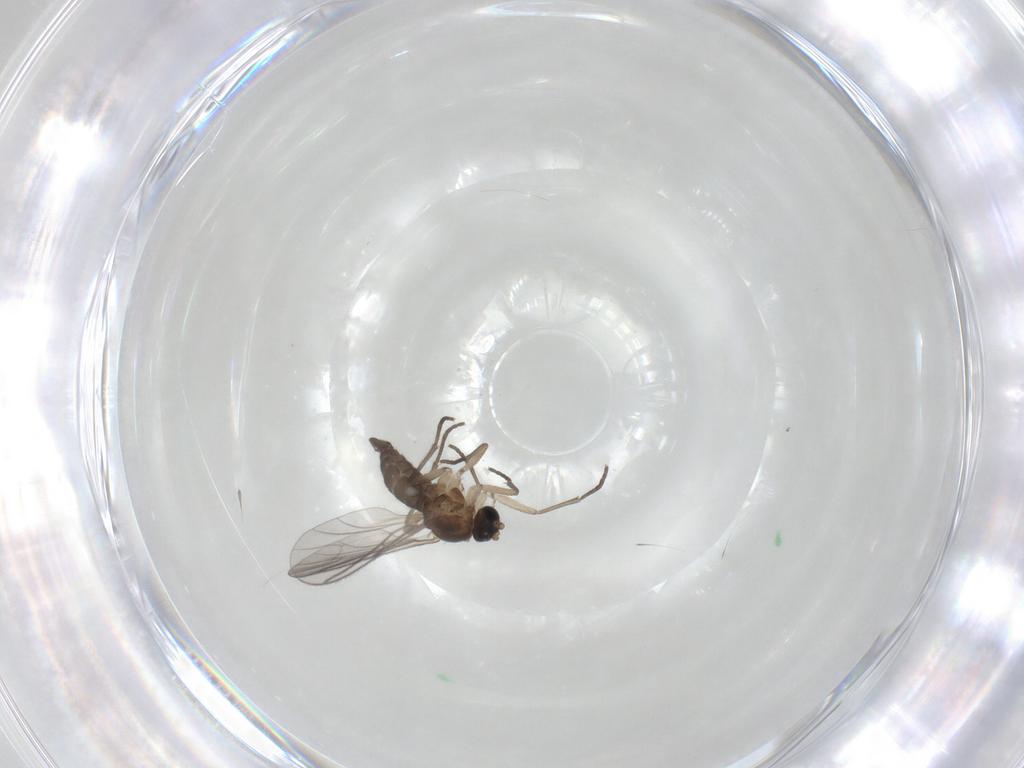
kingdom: Animalia
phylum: Arthropoda
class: Insecta
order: Diptera
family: Sciaridae
